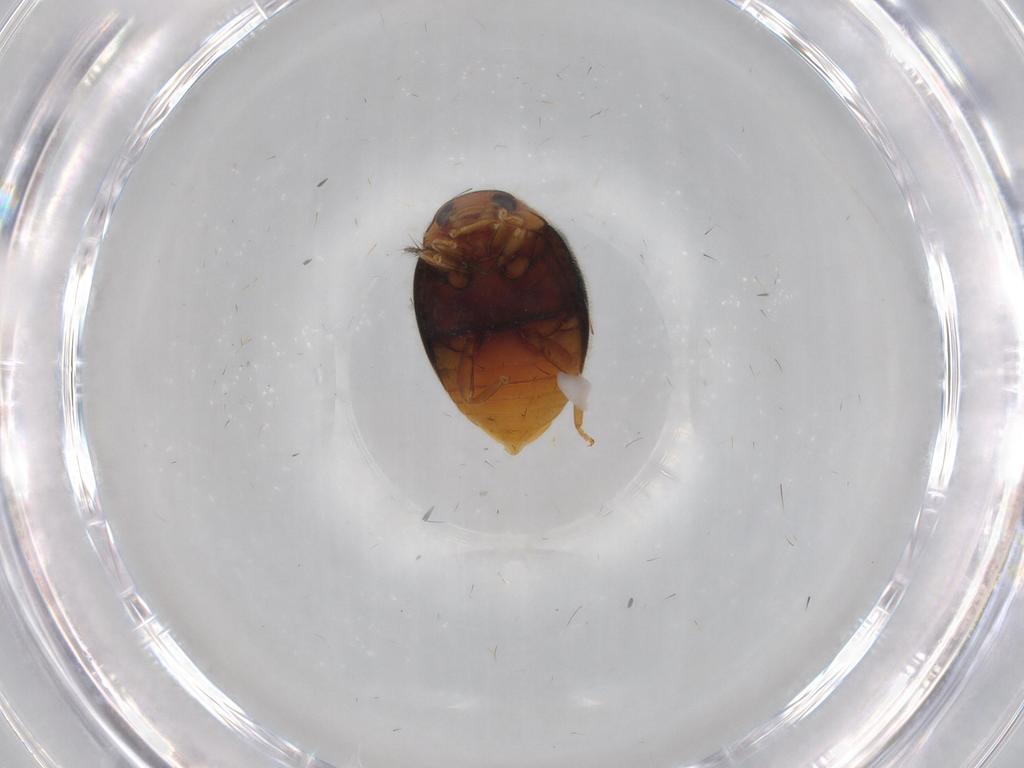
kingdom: Animalia
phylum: Arthropoda
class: Insecta
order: Coleoptera
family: Coccinellidae
